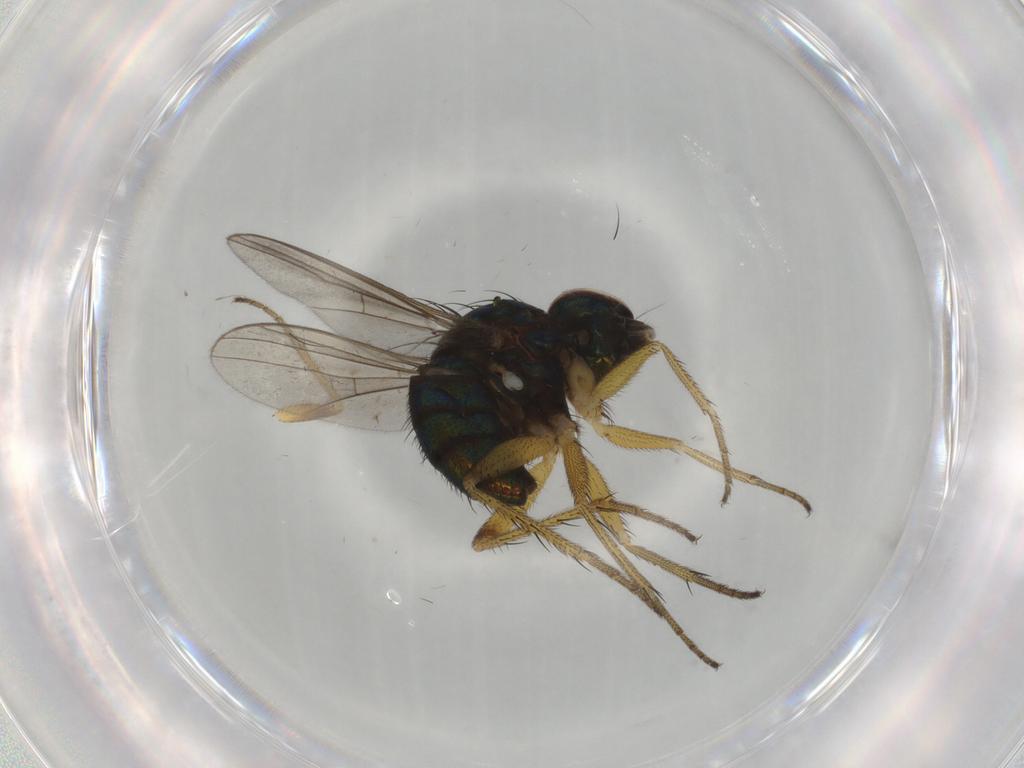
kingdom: Animalia
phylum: Arthropoda
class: Insecta
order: Diptera
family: Dolichopodidae
